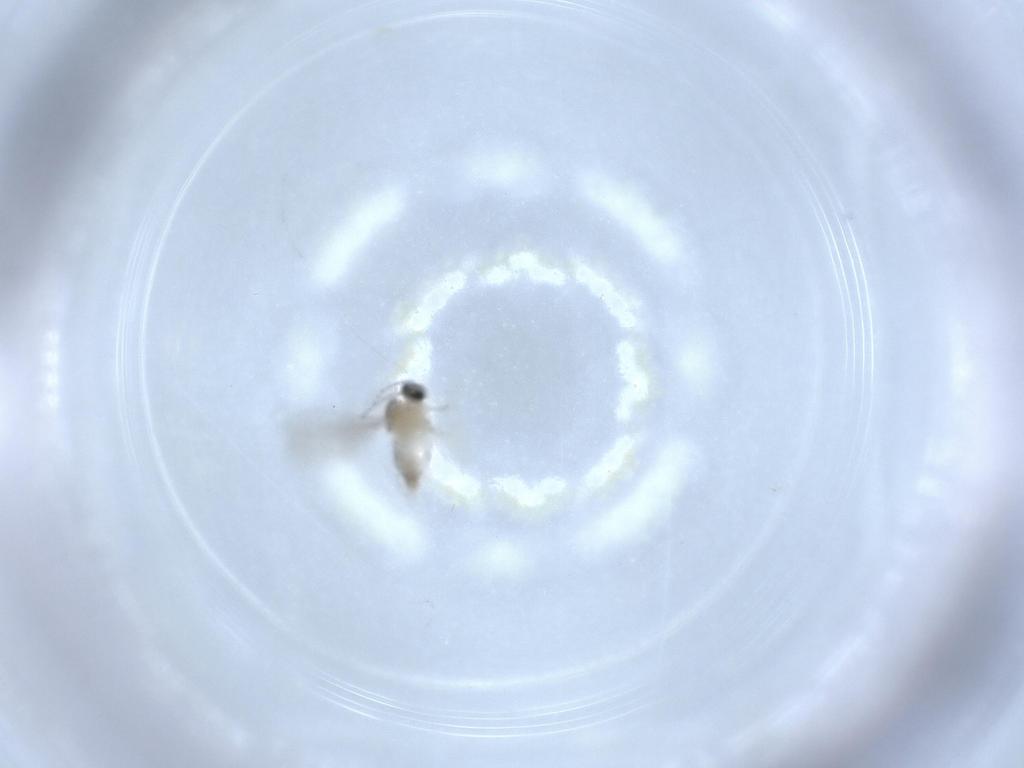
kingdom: Animalia
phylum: Arthropoda
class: Insecta
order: Diptera
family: Cecidomyiidae
